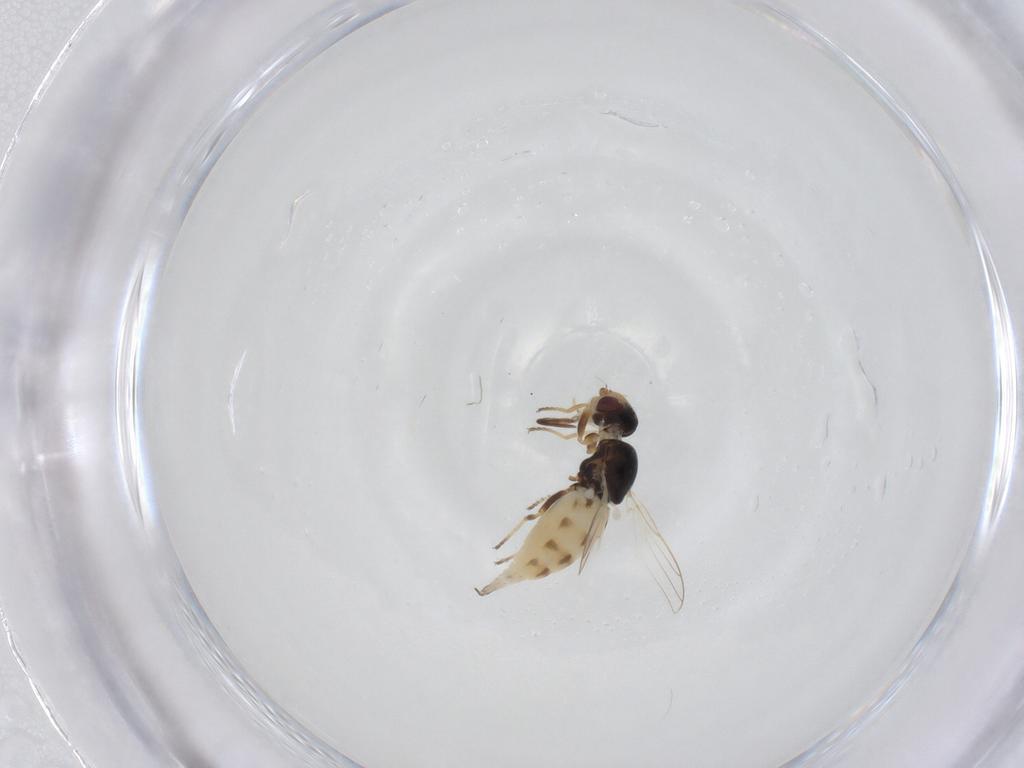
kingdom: Animalia
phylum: Arthropoda
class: Insecta
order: Diptera
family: Chloropidae
